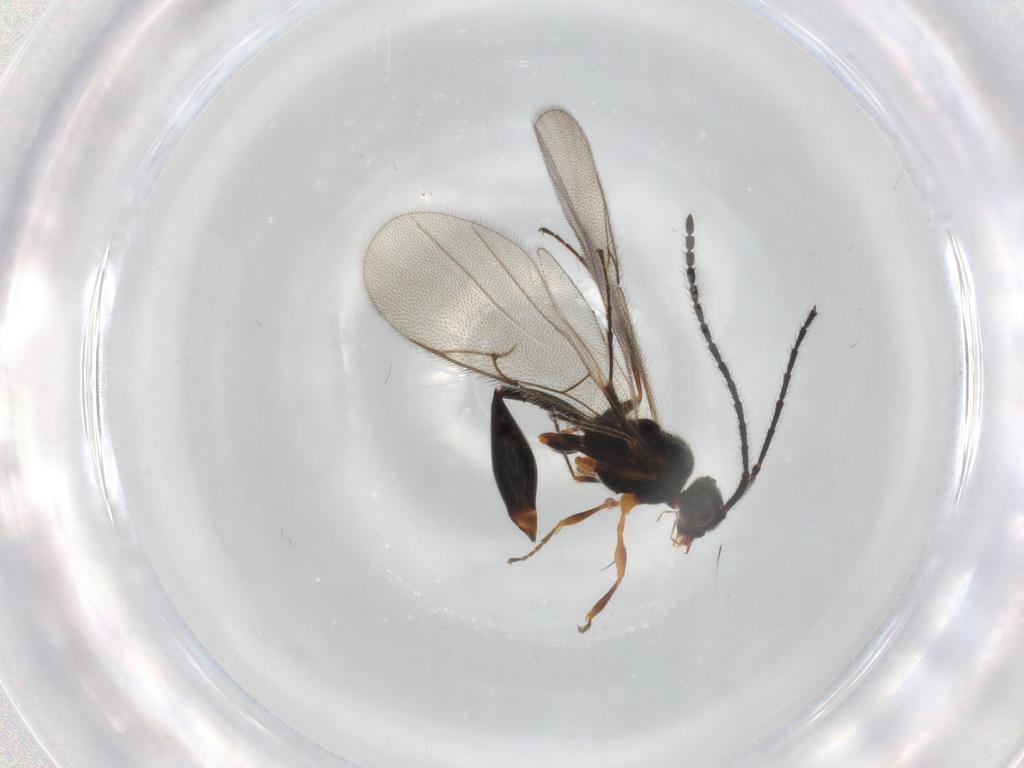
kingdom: Animalia
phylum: Arthropoda
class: Insecta
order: Hymenoptera
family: Diapriidae
